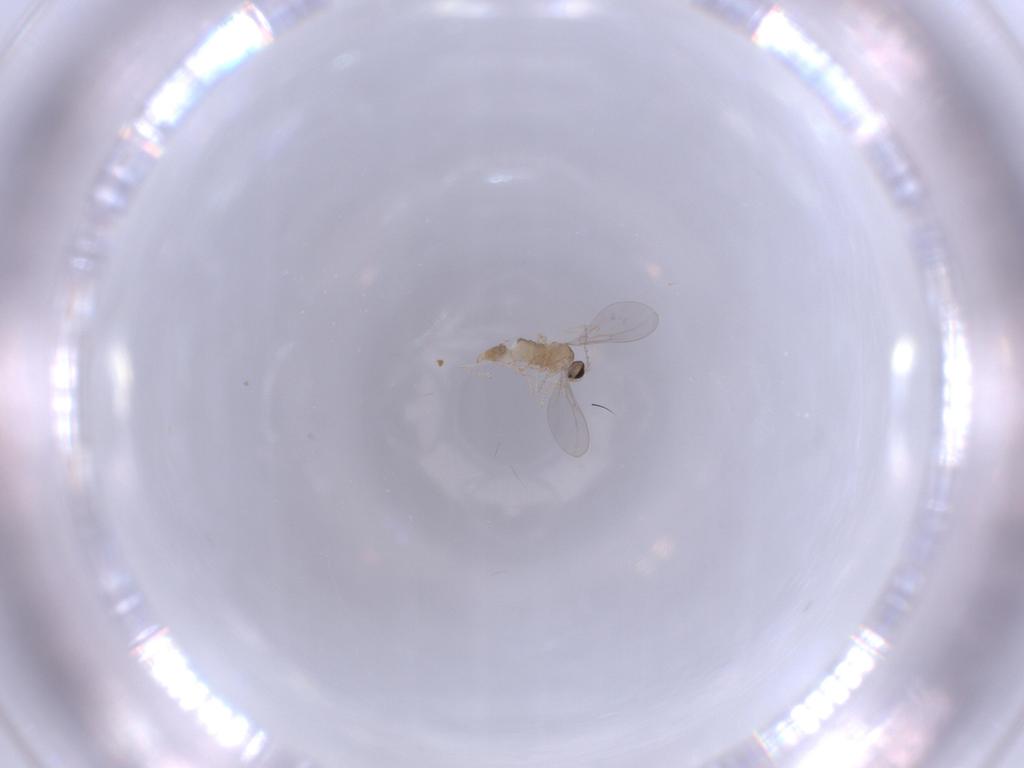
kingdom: Animalia
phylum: Arthropoda
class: Insecta
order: Diptera
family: Cecidomyiidae
